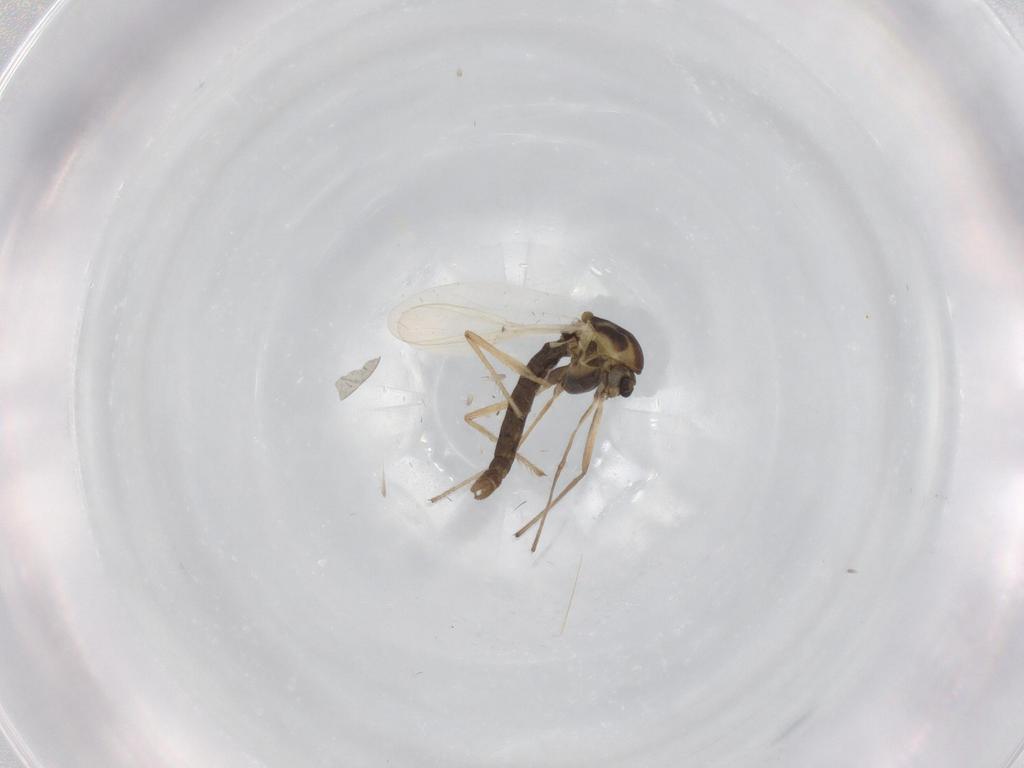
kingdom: Animalia
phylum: Arthropoda
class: Insecta
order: Diptera
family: Chironomidae
